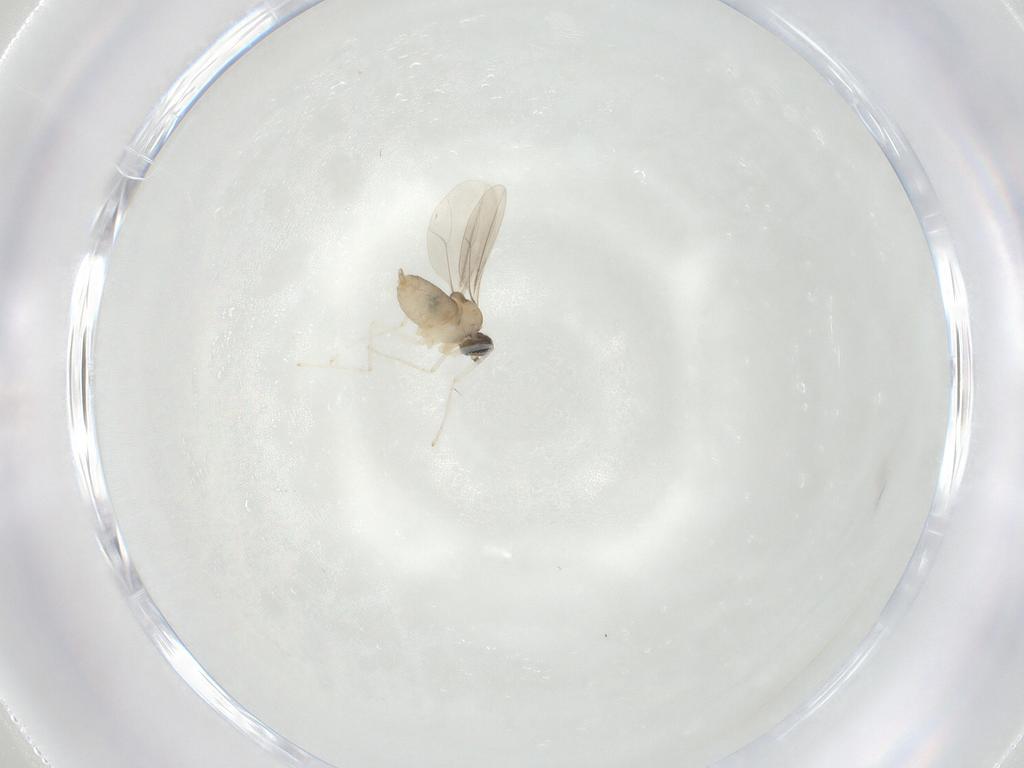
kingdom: Animalia
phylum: Arthropoda
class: Insecta
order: Diptera
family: Cecidomyiidae
